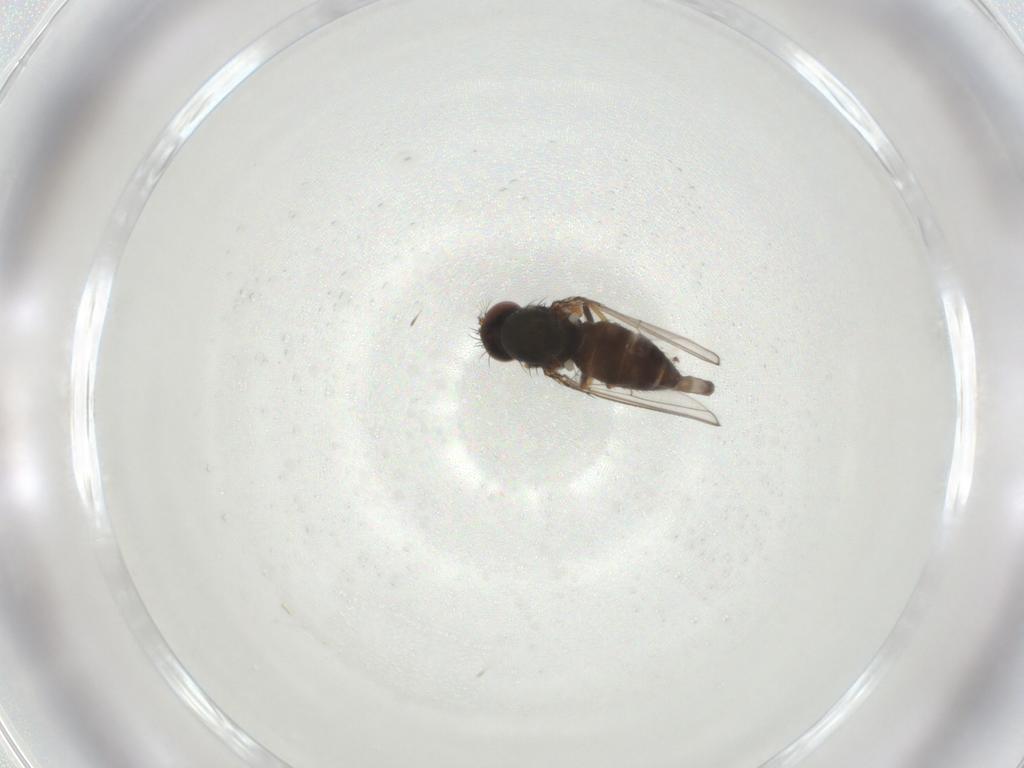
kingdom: Animalia
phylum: Arthropoda
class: Insecta
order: Diptera
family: Ephydridae
